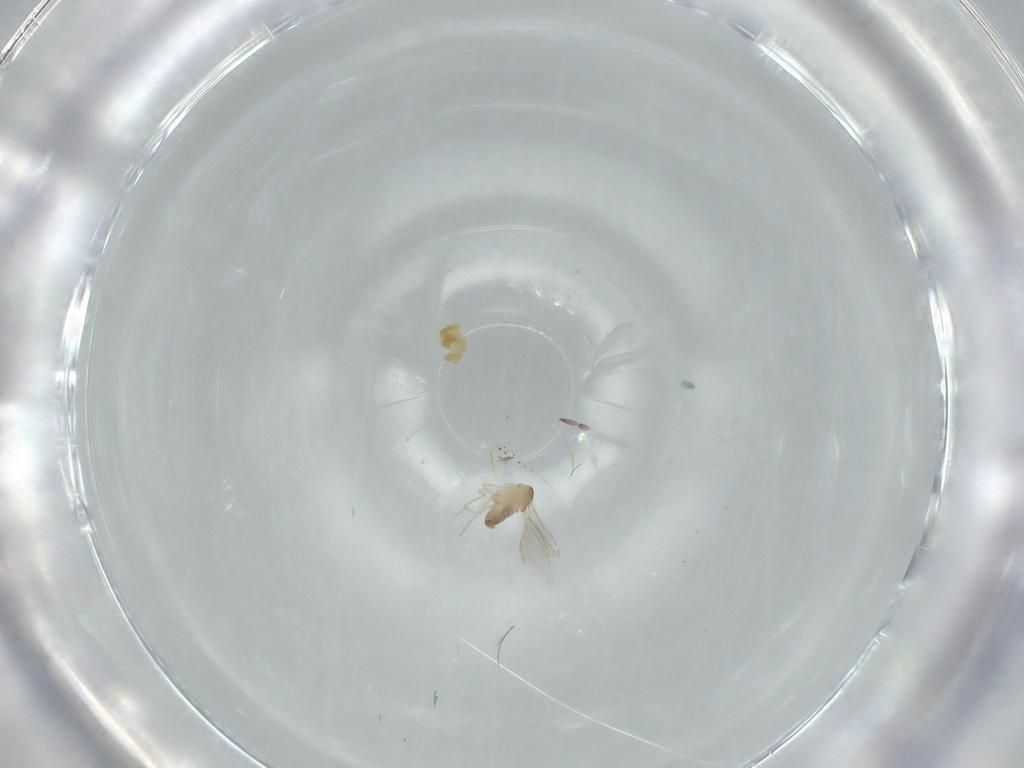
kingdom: Animalia
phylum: Arthropoda
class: Insecta
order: Diptera
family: Cecidomyiidae
